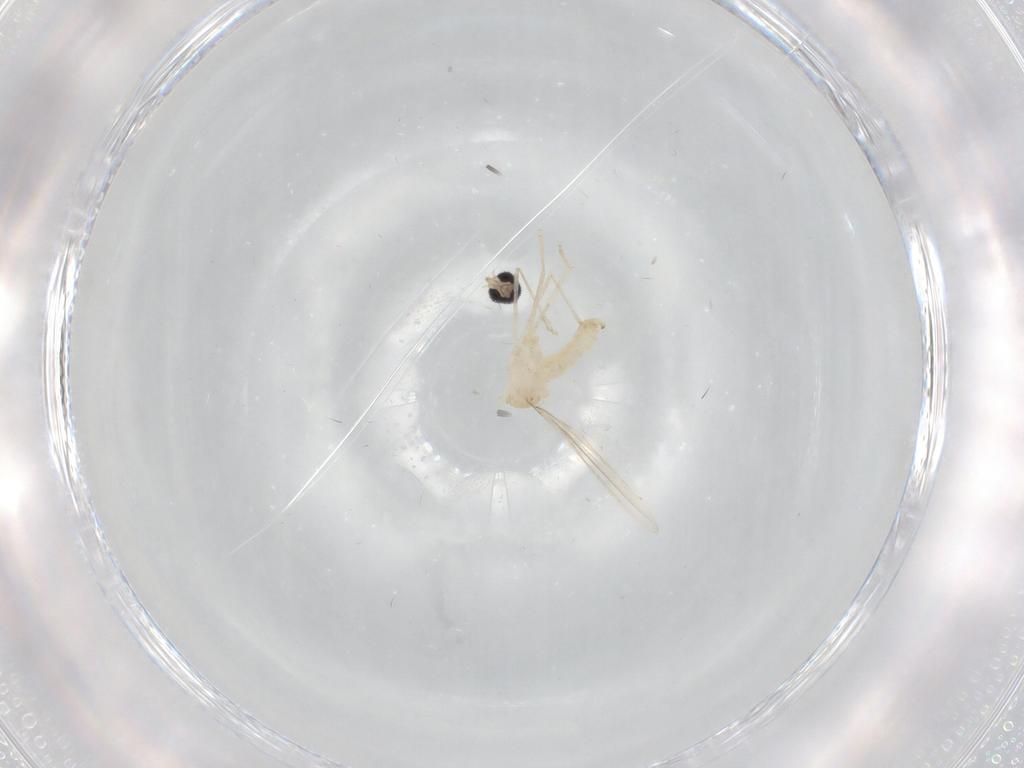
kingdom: Animalia
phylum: Arthropoda
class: Insecta
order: Diptera
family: Cecidomyiidae
